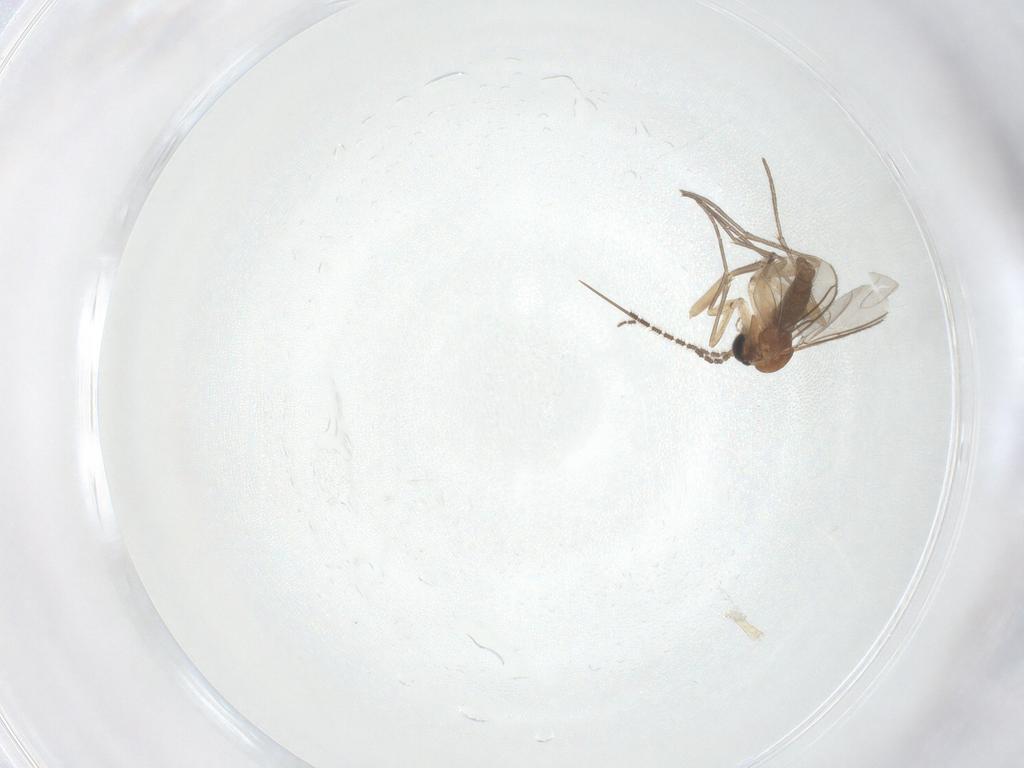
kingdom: Animalia
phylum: Arthropoda
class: Insecta
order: Diptera
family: Sciaridae
